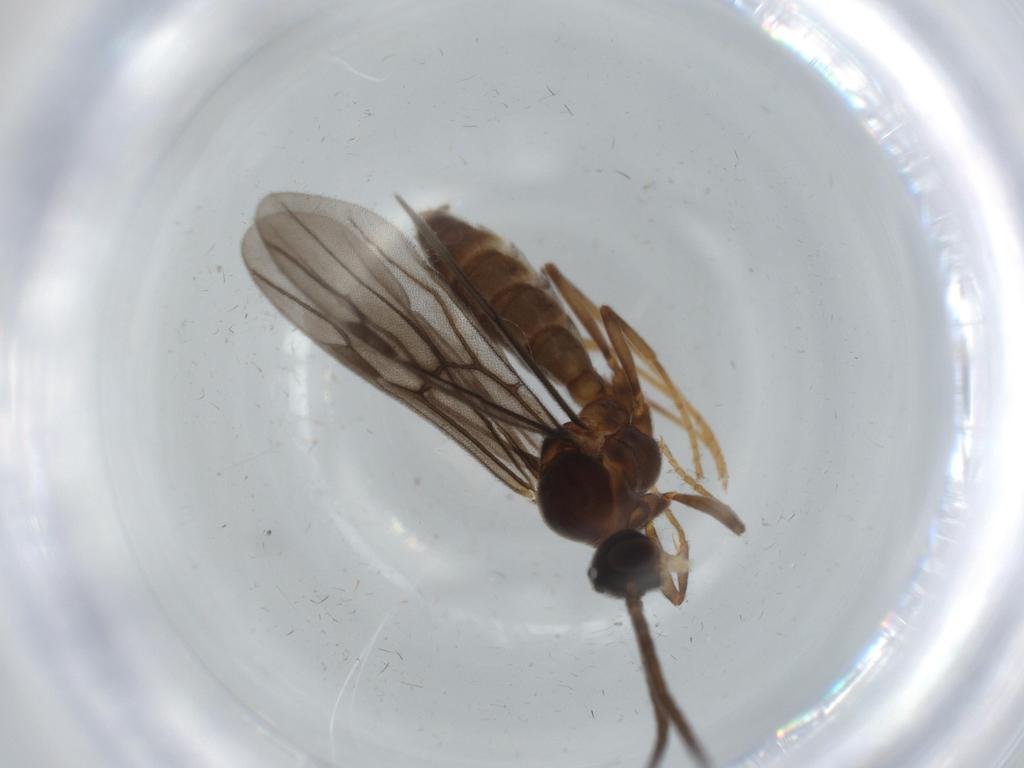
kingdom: Animalia
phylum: Arthropoda
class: Insecta
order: Hymenoptera
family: Formicidae
